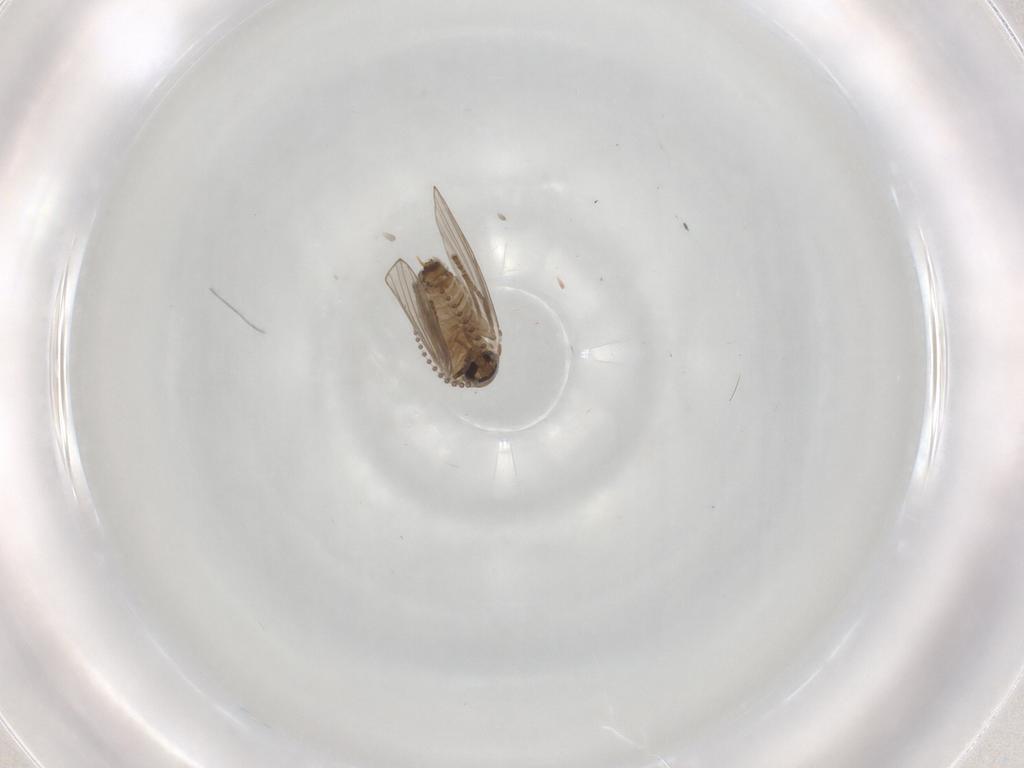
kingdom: Animalia
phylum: Arthropoda
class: Insecta
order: Diptera
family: Psychodidae
